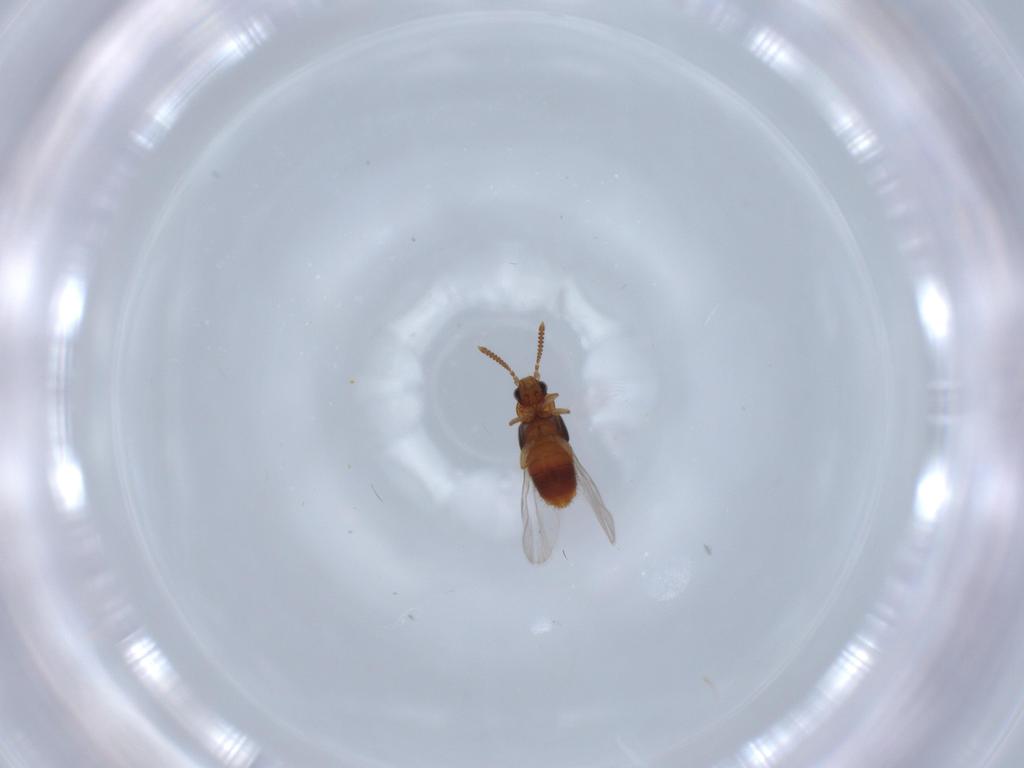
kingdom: Animalia
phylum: Arthropoda
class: Insecta
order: Coleoptera
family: Staphylinidae
